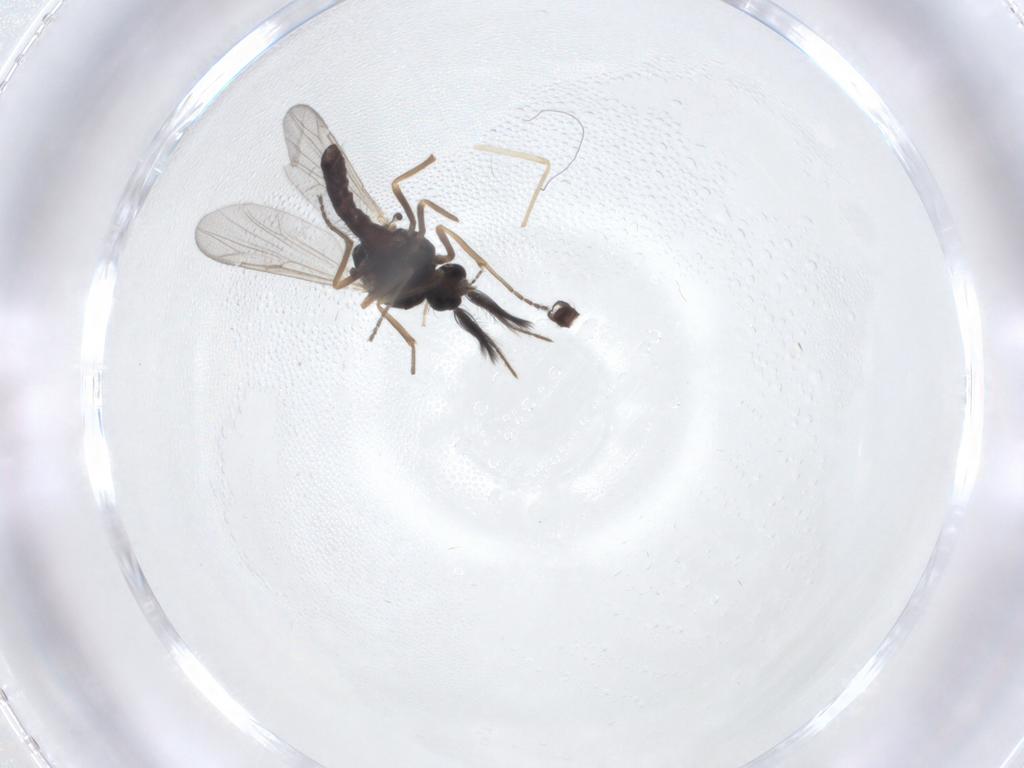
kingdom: Animalia
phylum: Arthropoda
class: Insecta
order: Diptera
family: Ceratopogonidae
